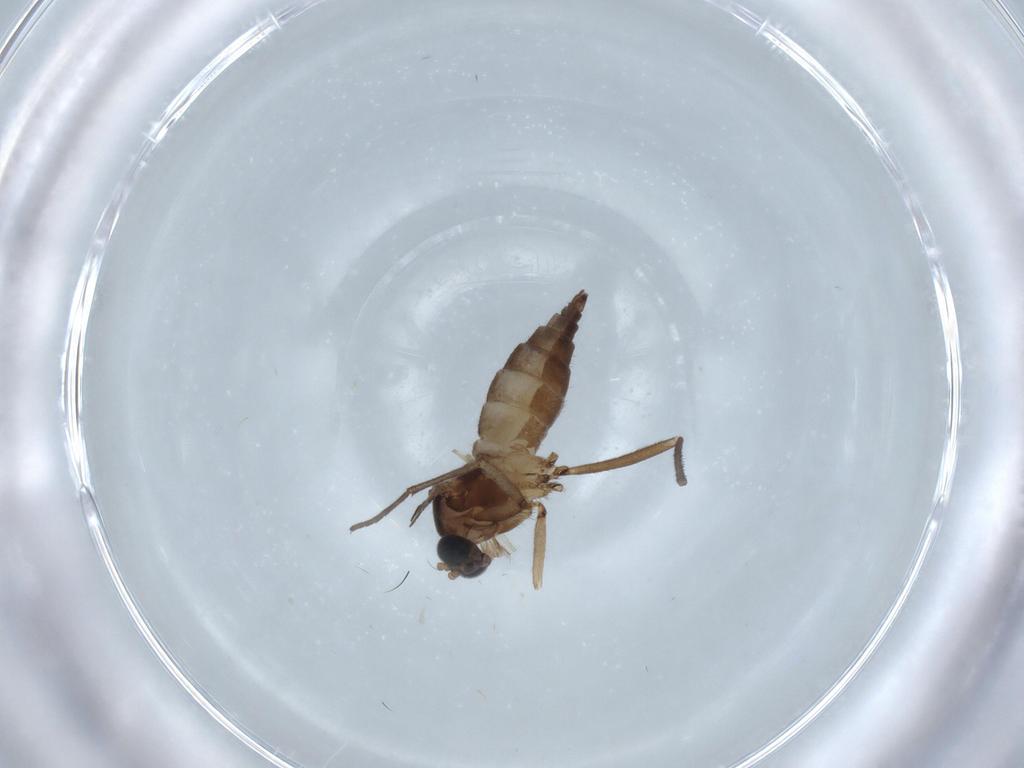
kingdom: Animalia
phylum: Arthropoda
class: Insecta
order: Diptera
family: Sciaridae
